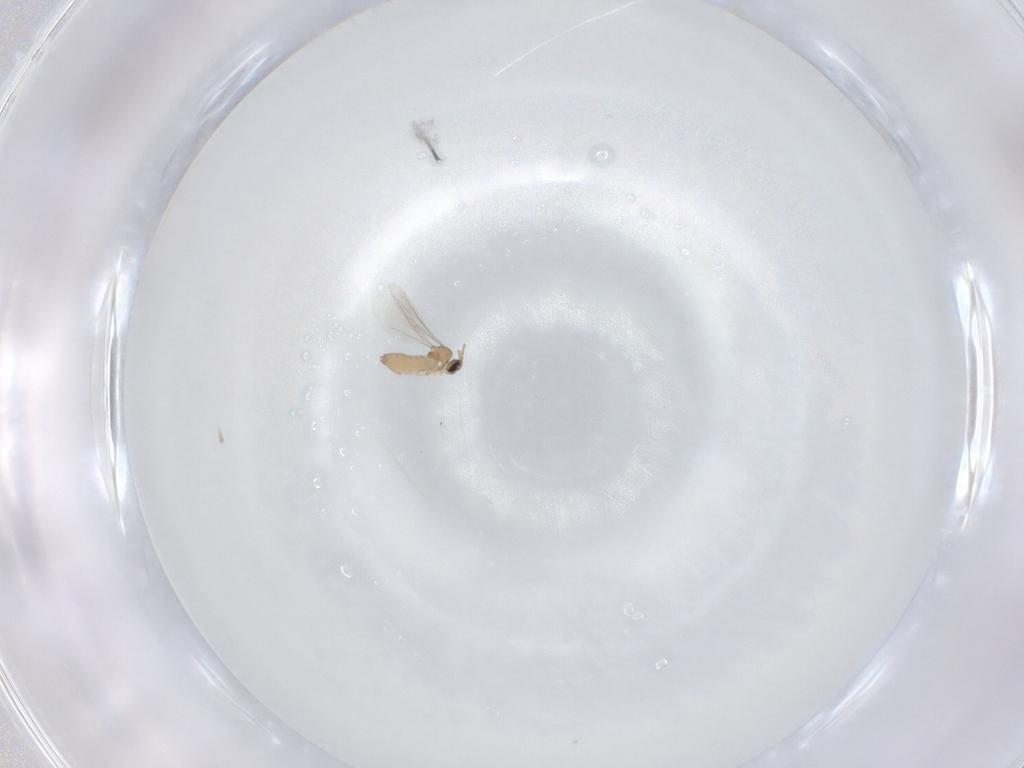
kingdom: Animalia
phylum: Arthropoda
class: Insecta
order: Diptera
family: Cecidomyiidae
